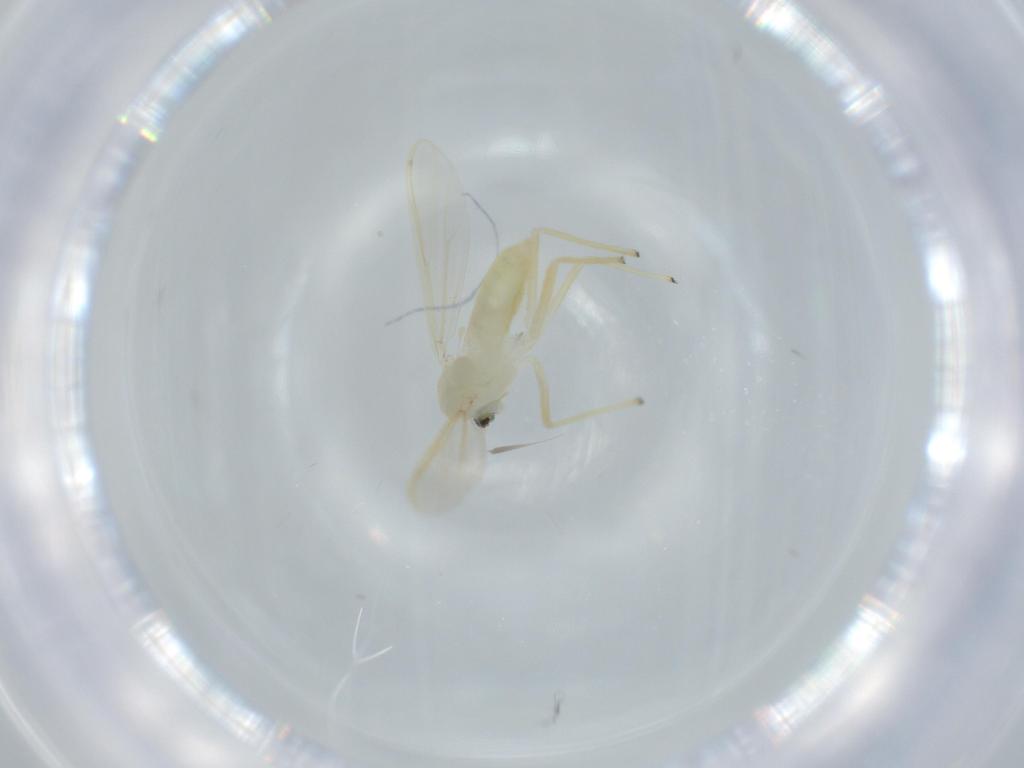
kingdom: Animalia
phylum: Arthropoda
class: Insecta
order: Diptera
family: Chironomidae
